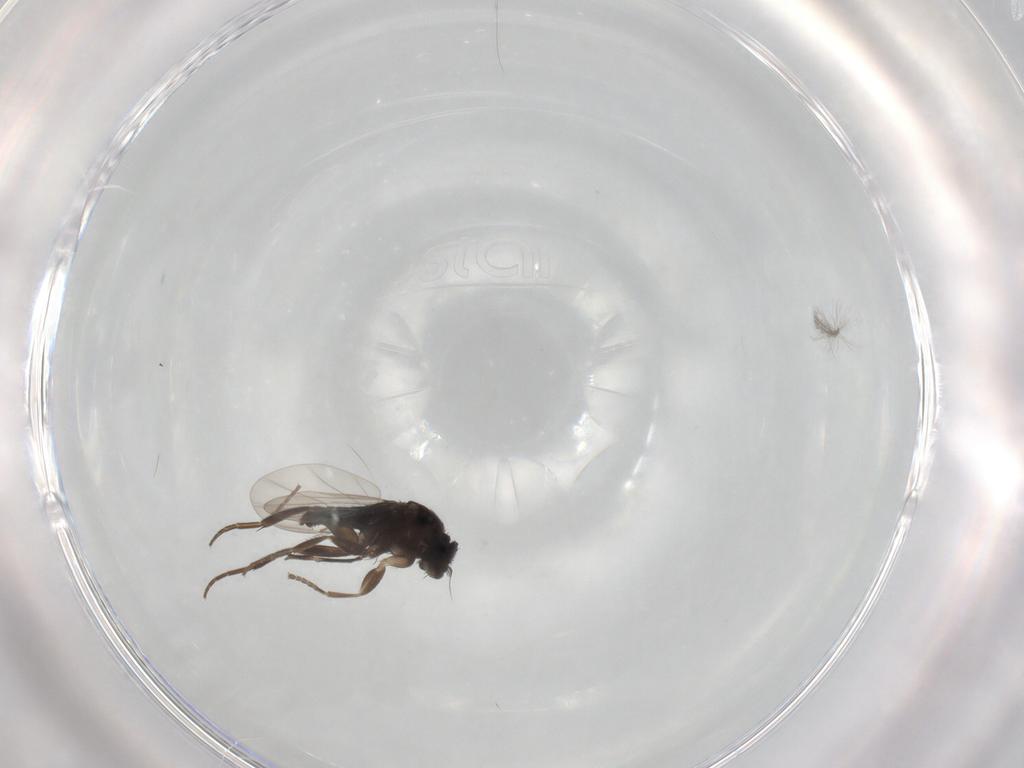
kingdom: Animalia
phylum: Arthropoda
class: Insecta
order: Diptera
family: Phoridae
